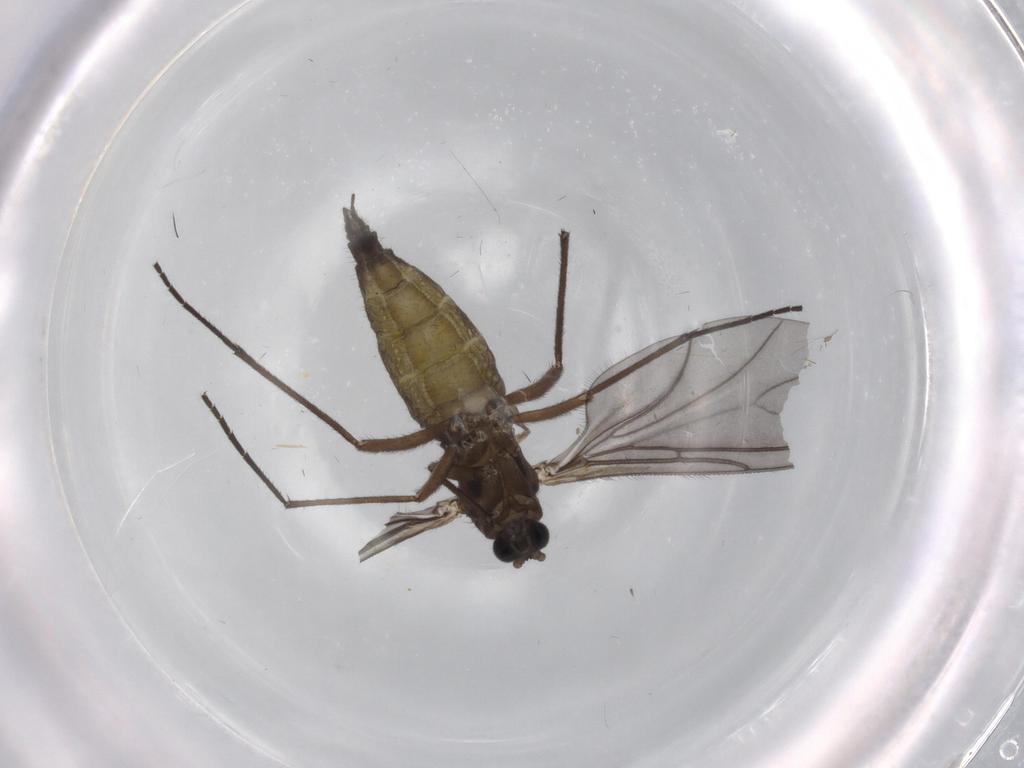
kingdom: Animalia
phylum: Arthropoda
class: Insecta
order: Diptera
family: Sciaridae
